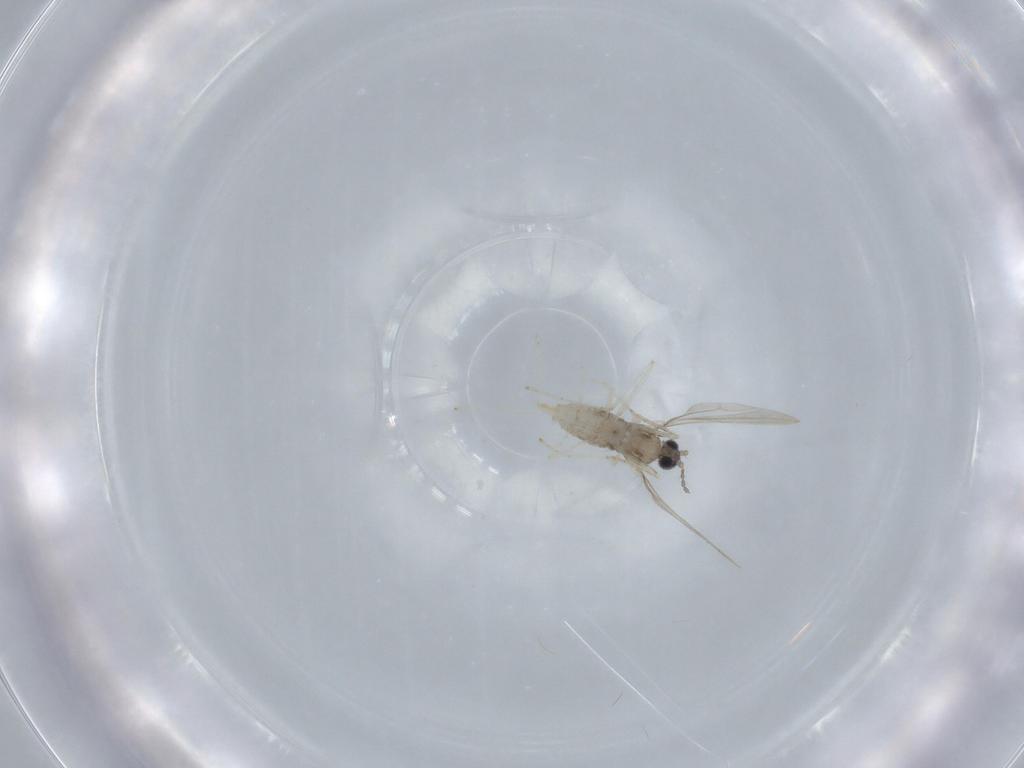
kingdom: Animalia
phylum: Arthropoda
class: Insecta
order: Diptera
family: Cecidomyiidae
